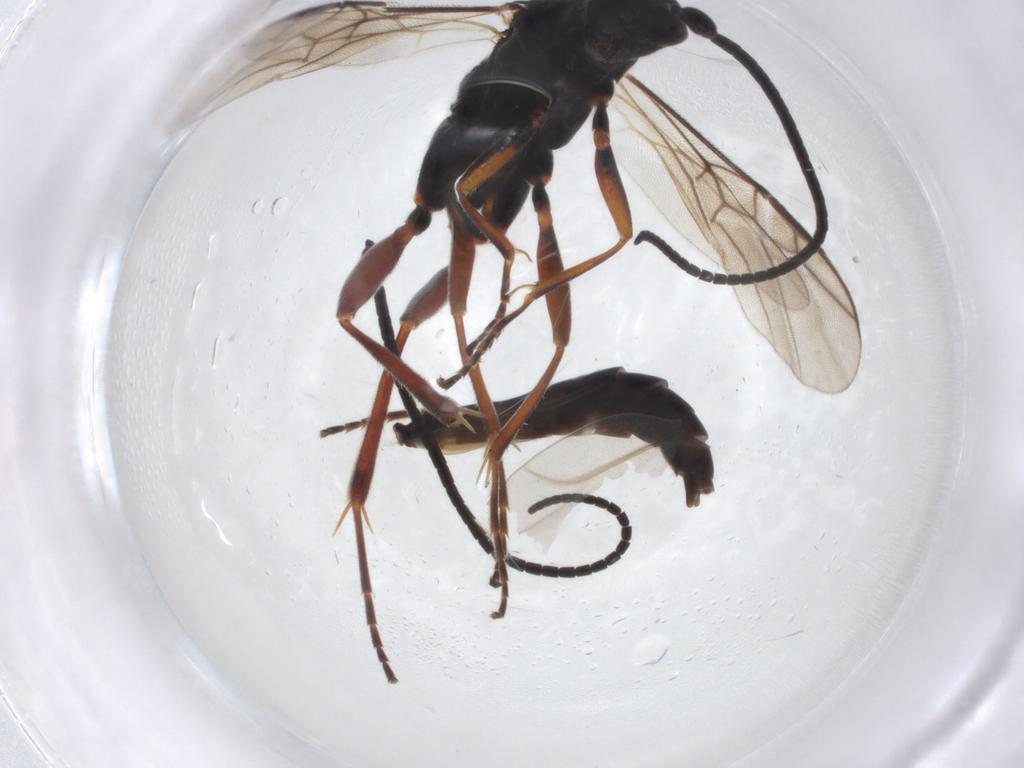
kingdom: Animalia
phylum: Arthropoda
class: Insecta
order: Hymenoptera
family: Braconidae
